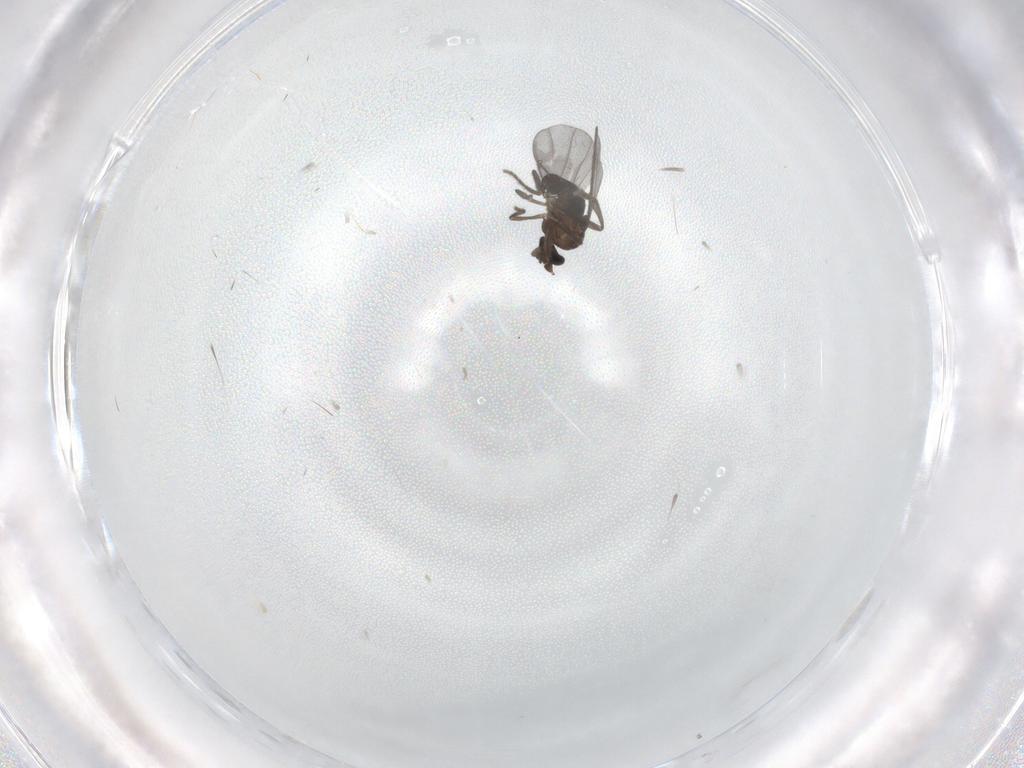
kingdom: Animalia
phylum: Arthropoda
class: Insecta
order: Diptera
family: Phoridae
